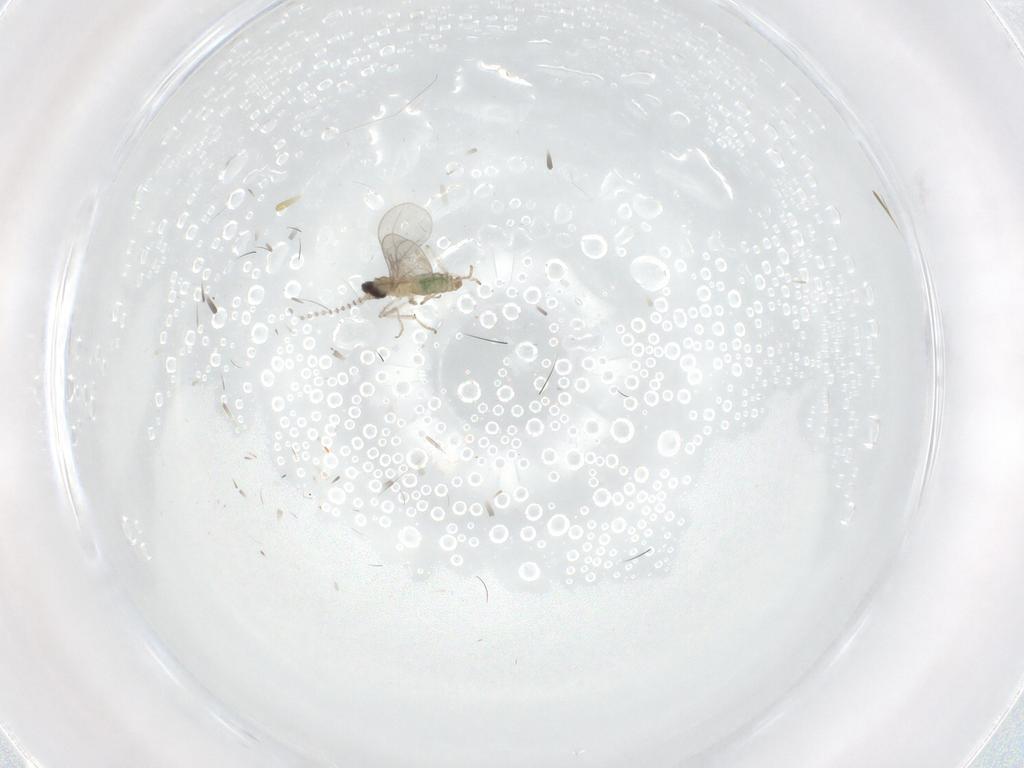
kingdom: Animalia
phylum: Arthropoda
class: Insecta
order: Diptera
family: Cecidomyiidae
